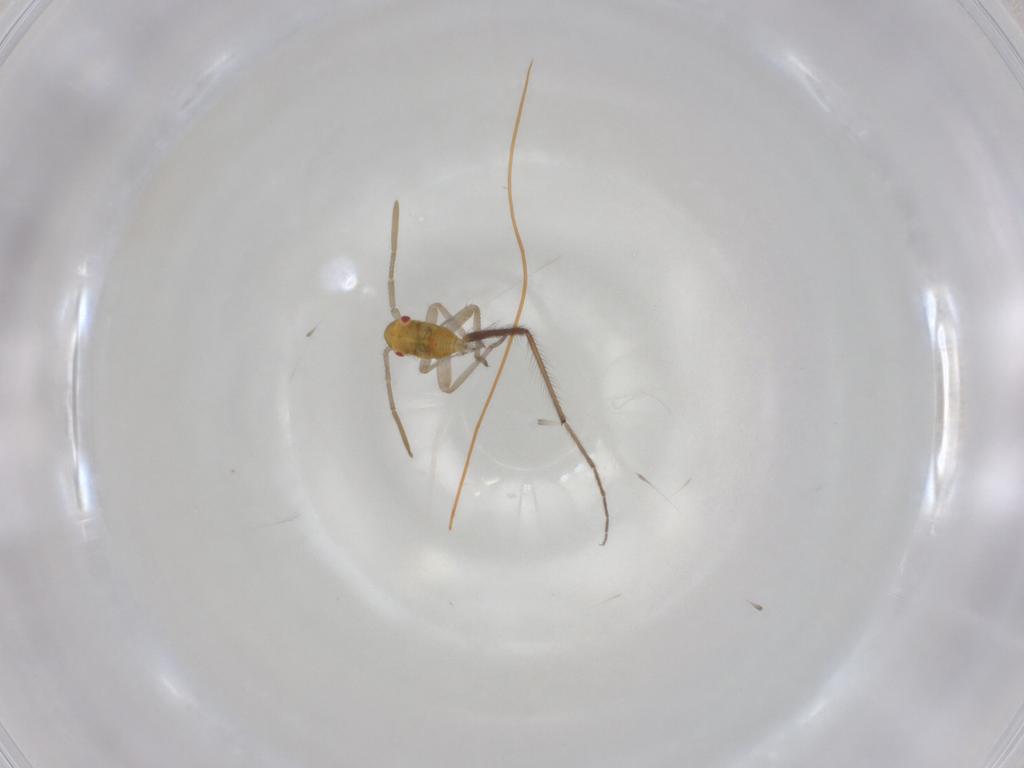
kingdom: Animalia
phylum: Arthropoda
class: Insecta
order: Hemiptera
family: Miridae
